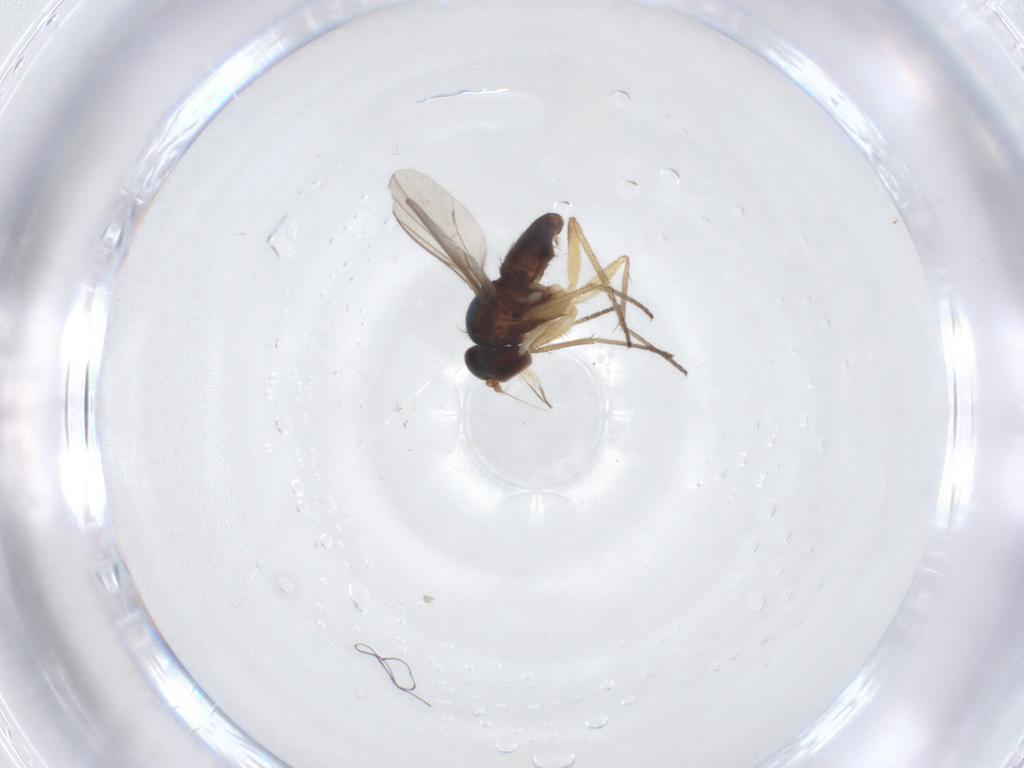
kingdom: Animalia
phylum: Arthropoda
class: Insecta
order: Diptera
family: Dolichopodidae
